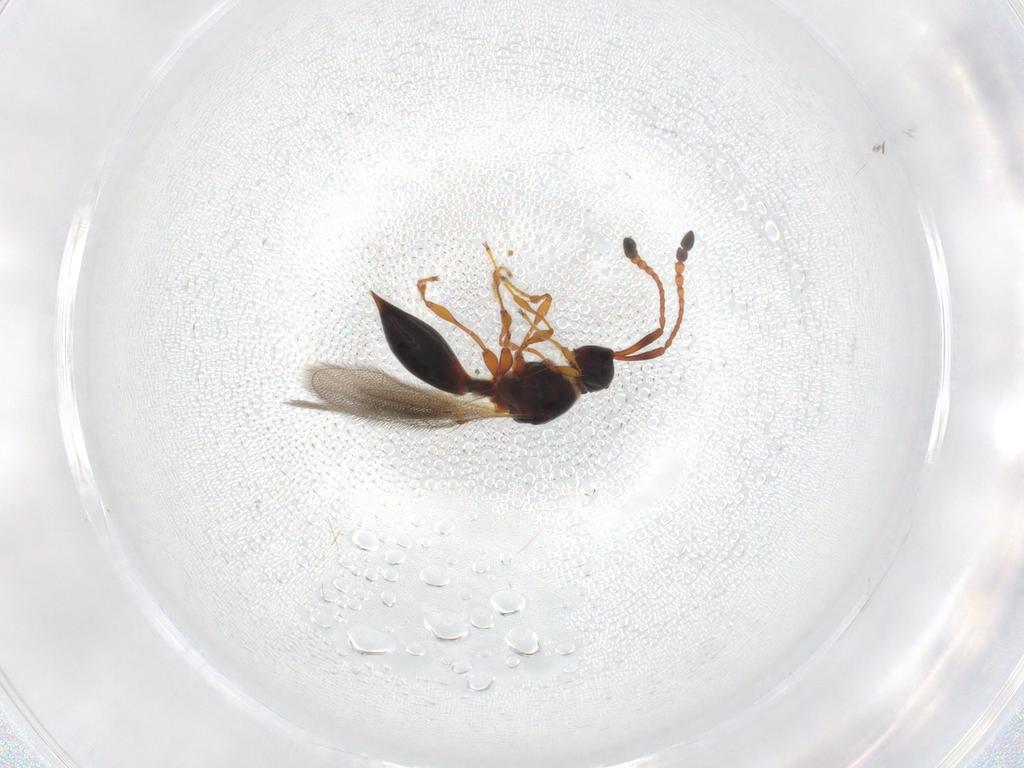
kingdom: Animalia
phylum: Arthropoda
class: Insecta
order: Hymenoptera
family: Diapriidae
